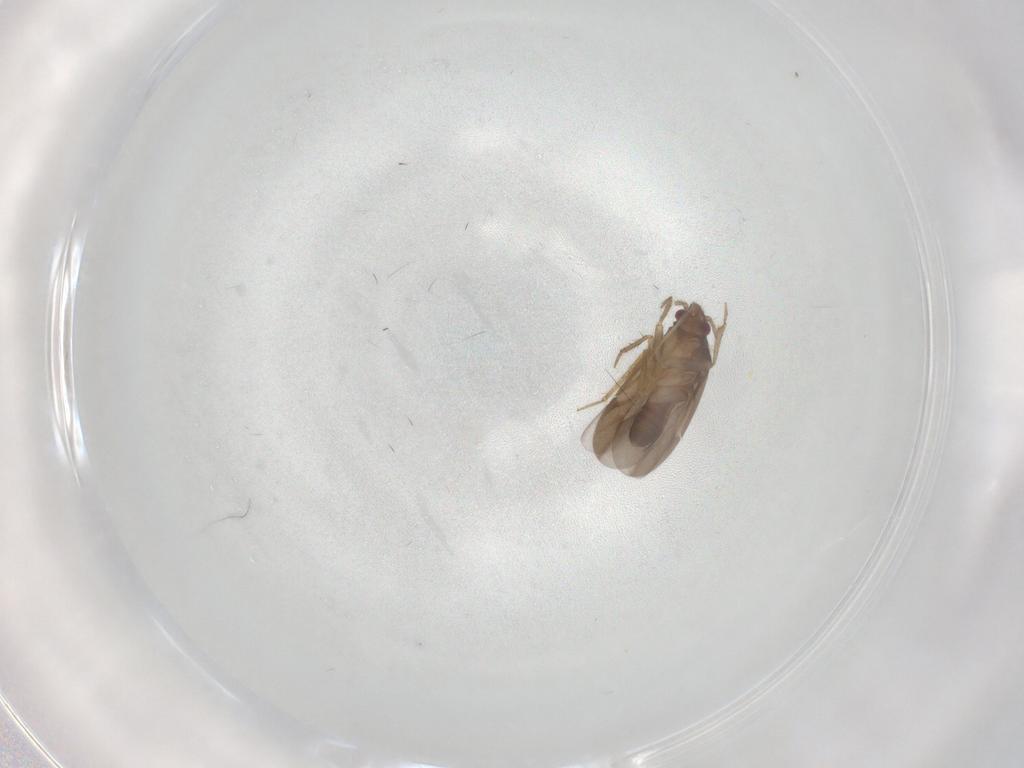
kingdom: Animalia
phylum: Arthropoda
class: Insecta
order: Hemiptera
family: Ceratocombidae
